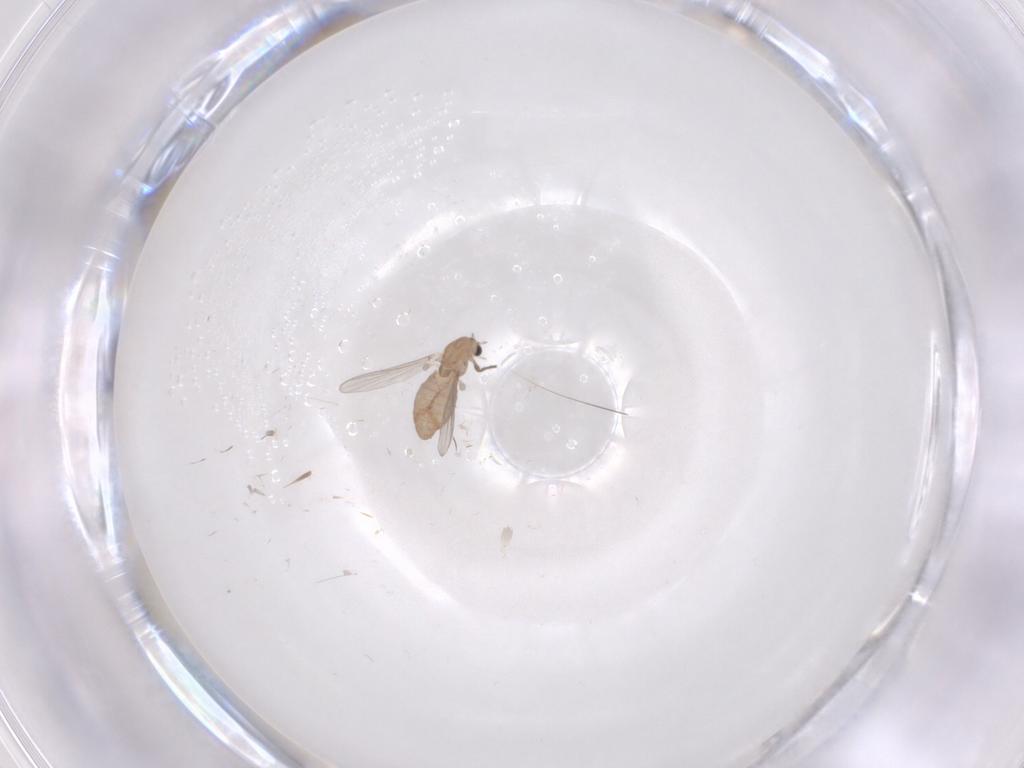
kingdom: Animalia
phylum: Arthropoda
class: Insecta
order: Diptera
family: Chironomidae
